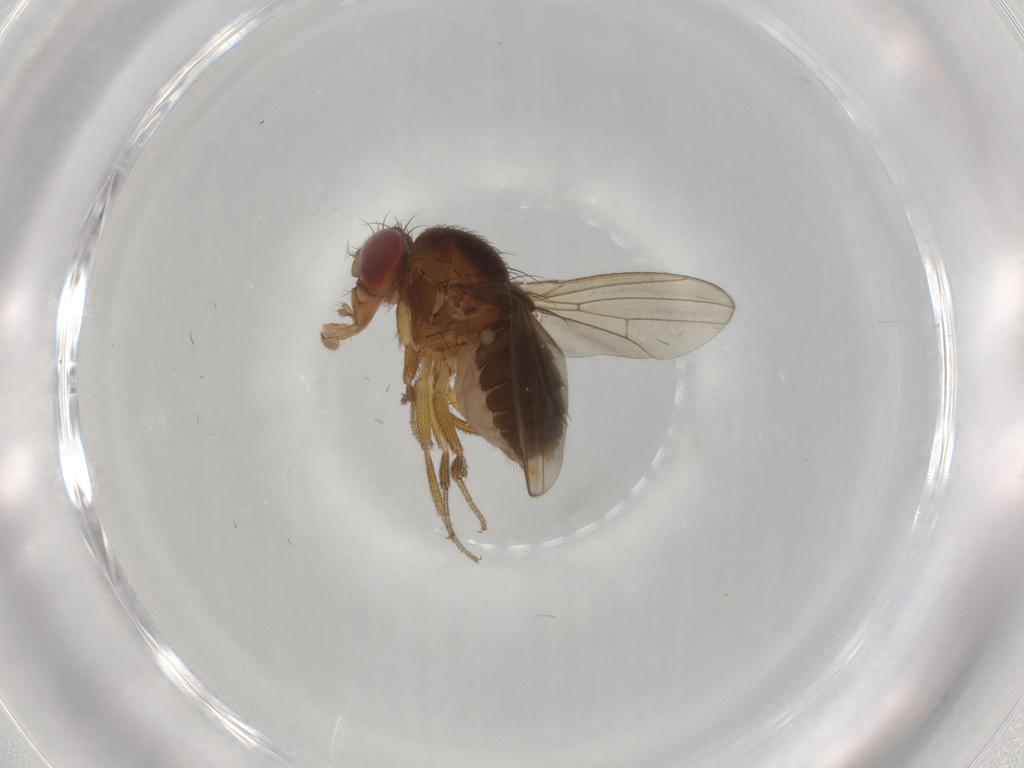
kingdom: Animalia
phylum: Arthropoda
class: Insecta
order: Diptera
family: Drosophilidae
